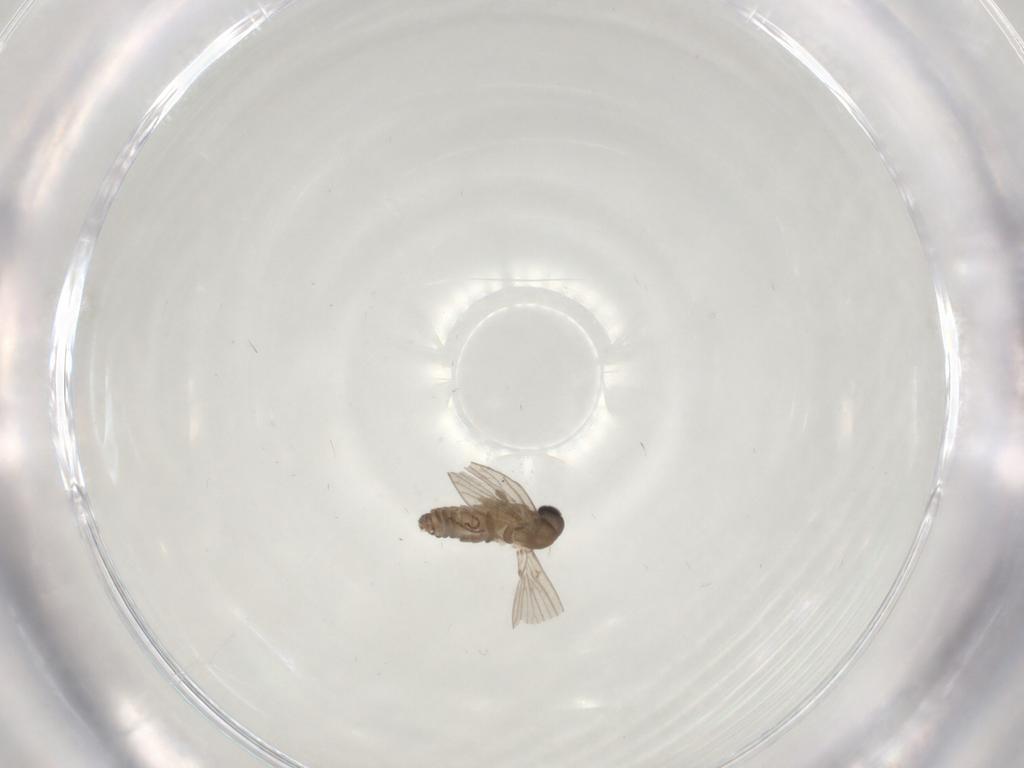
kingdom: Animalia
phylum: Arthropoda
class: Insecta
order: Diptera
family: Psychodidae
